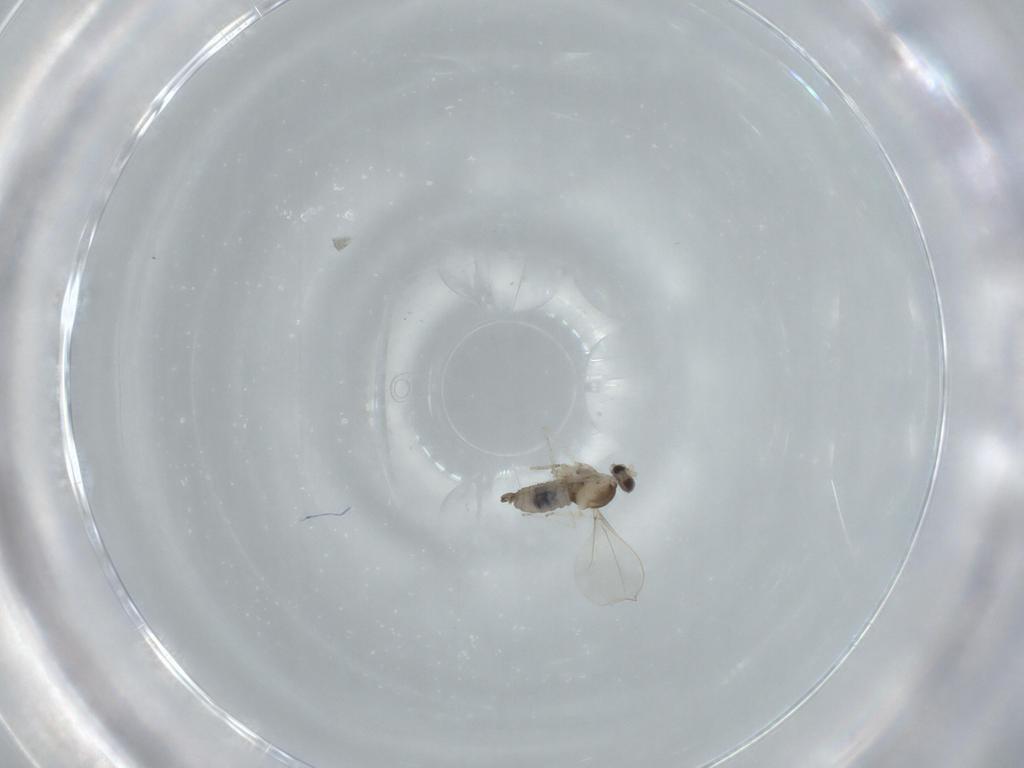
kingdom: Animalia
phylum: Arthropoda
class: Insecta
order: Diptera
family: Cecidomyiidae
